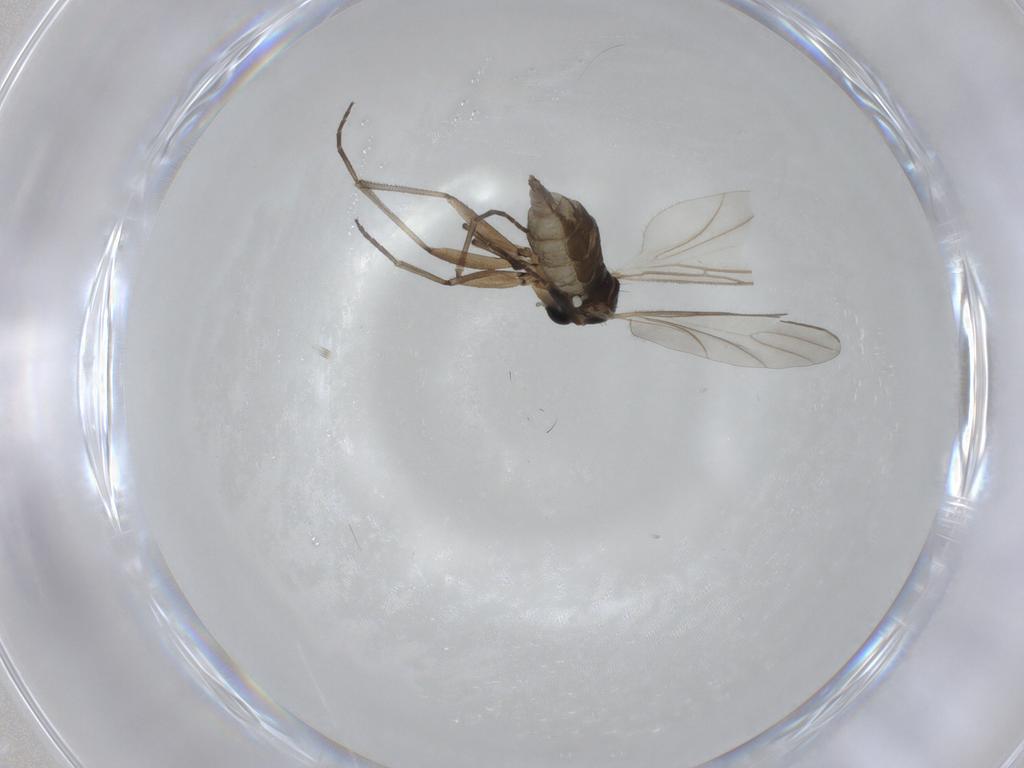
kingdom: Animalia
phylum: Arthropoda
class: Insecta
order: Diptera
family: Empididae
